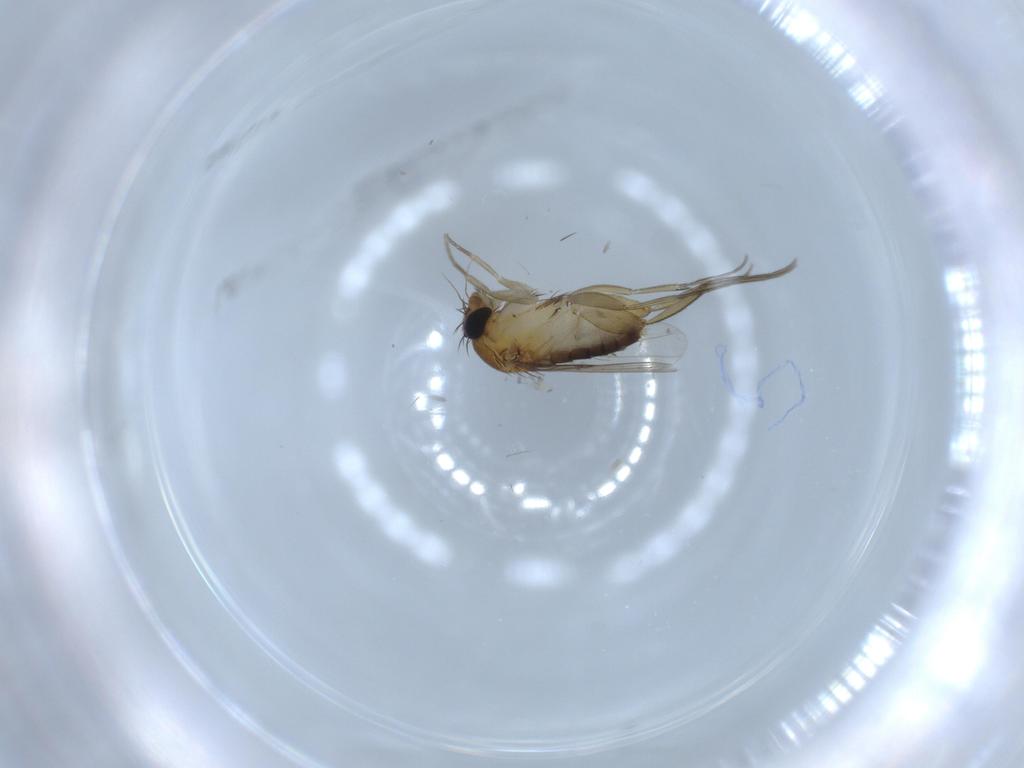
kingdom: Animalia
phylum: Arthropoda
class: Insecta
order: Diptera
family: Phoridae
